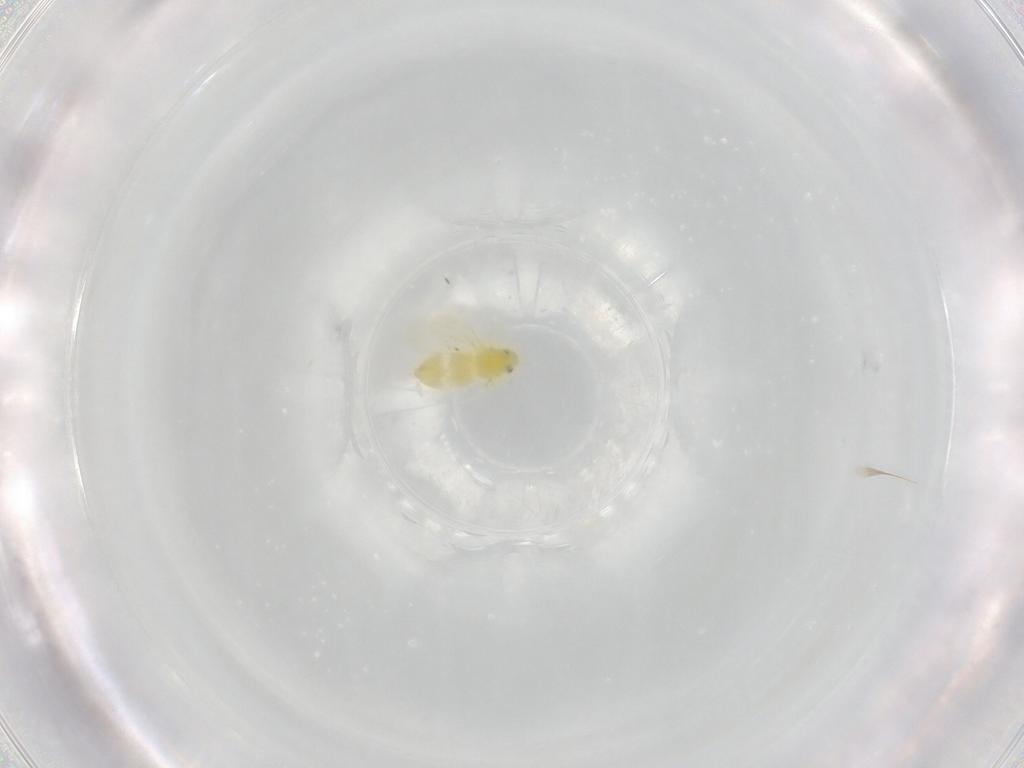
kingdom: Animalia
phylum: Arthropoda
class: Insecta
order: Hemiptera
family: Aleyrodidae
